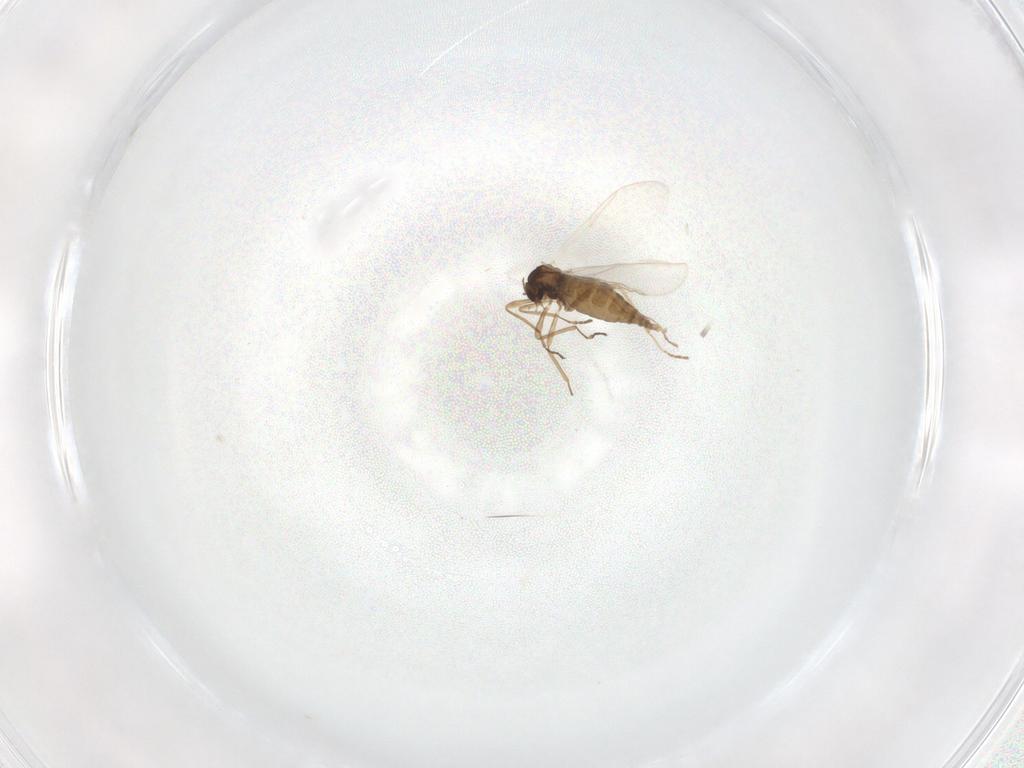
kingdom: Animalia
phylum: Arthropoda
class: Insecta
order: Diptera
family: Cecidomyiidae
